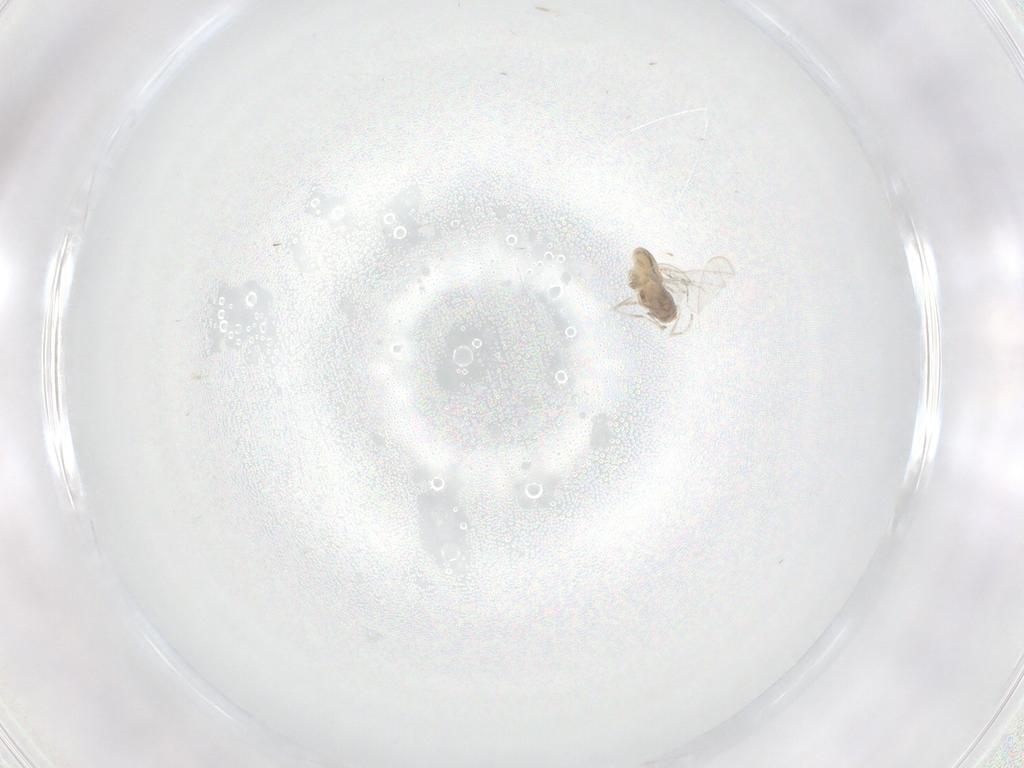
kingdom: Animalia
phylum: Arthropoda
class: Insecta
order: Diptera
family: Cecidomyiidae
